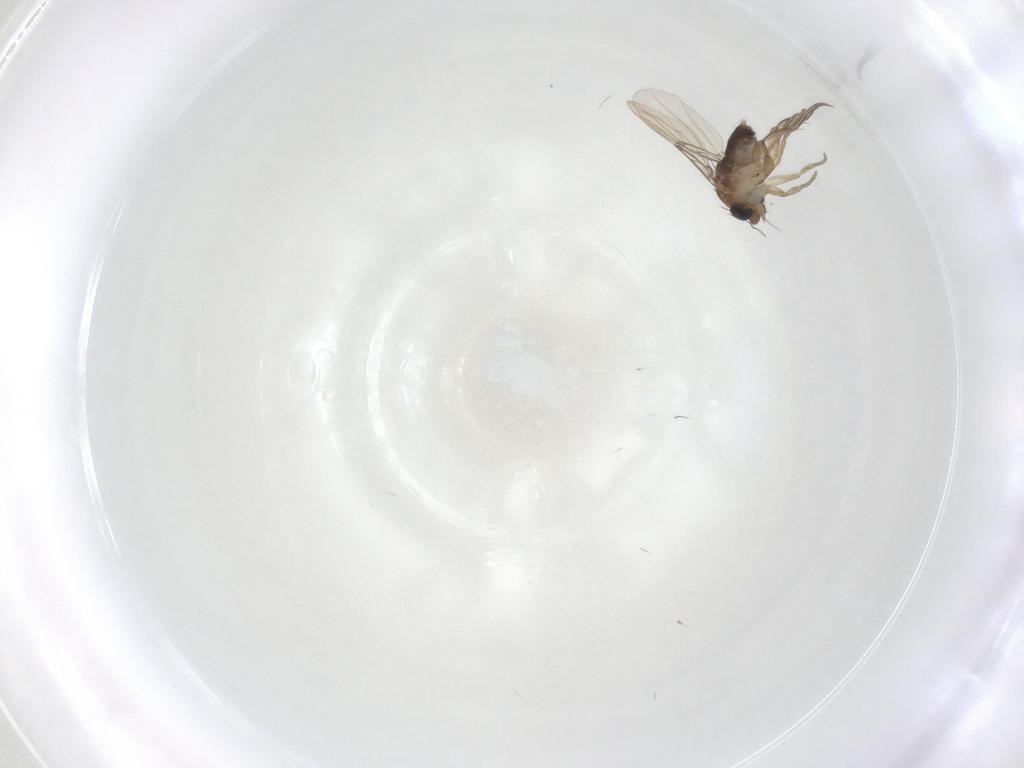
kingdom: Animalia
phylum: Arthropoda
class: Insecta
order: Diptera
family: Phoridae
